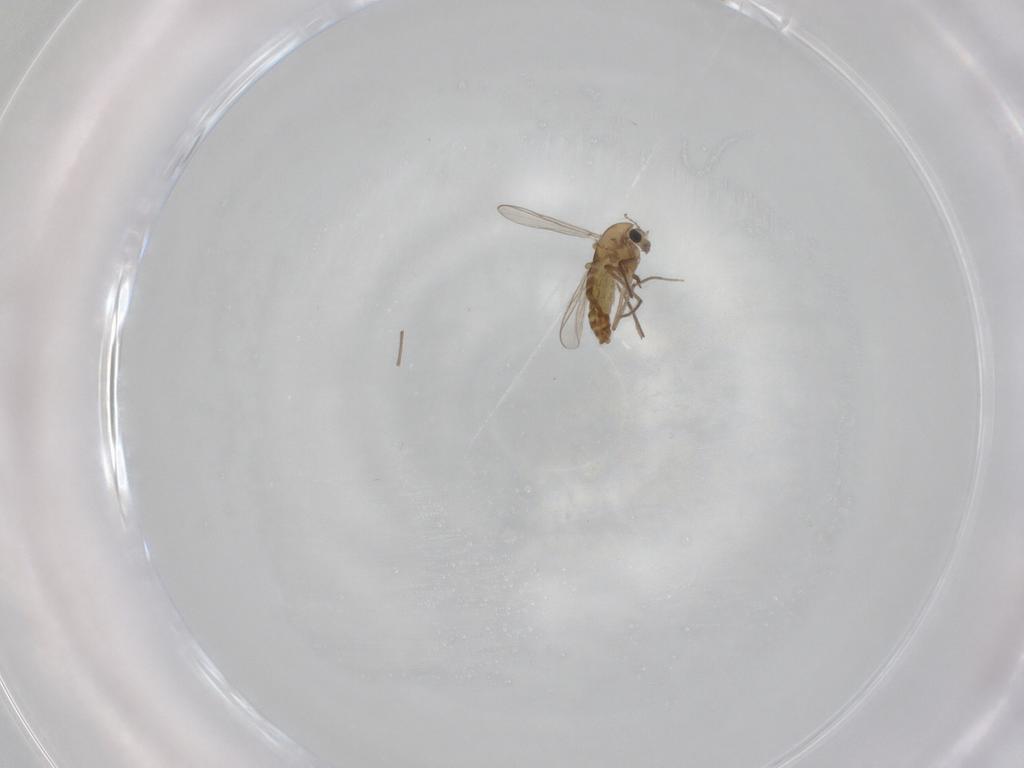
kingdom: Animalia
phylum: Arthropoda
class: Insecta
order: Diptera
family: Chironomidae
